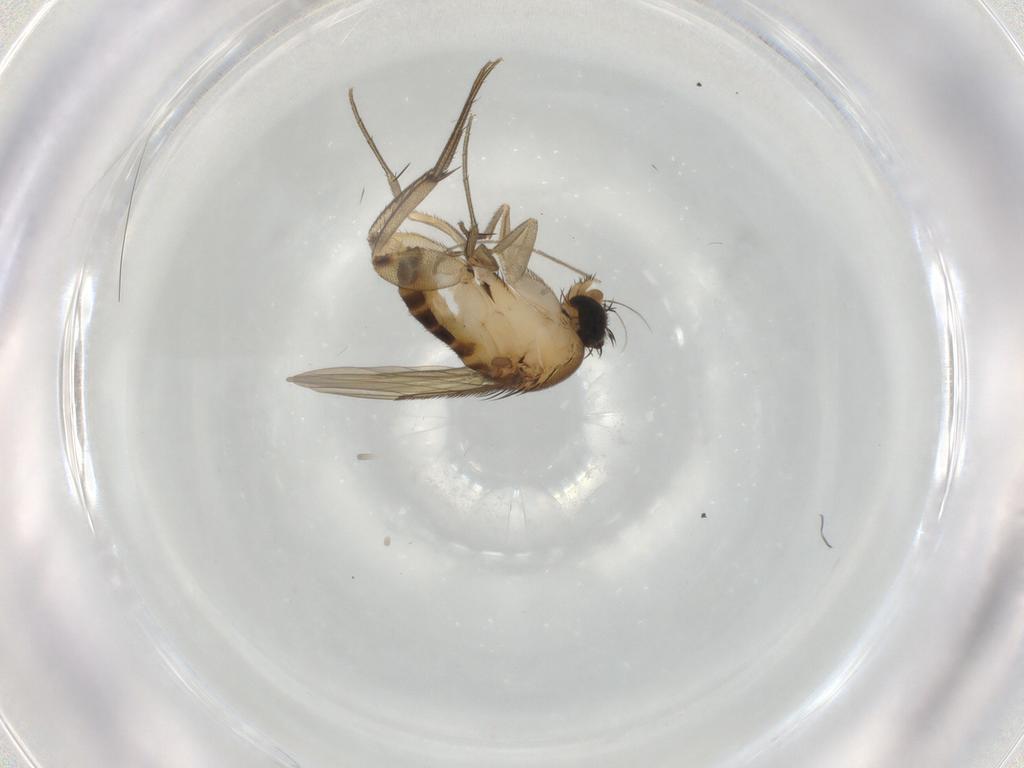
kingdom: Animalia
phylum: Arthropoda
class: Insecta
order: Diptera
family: Phoridae
